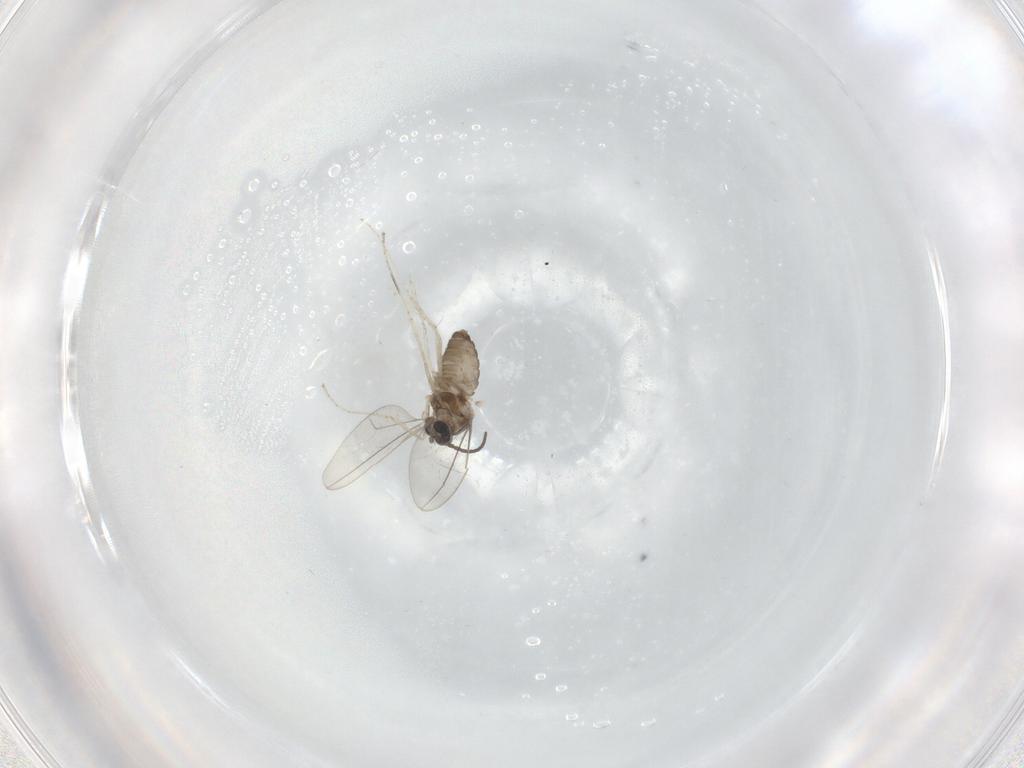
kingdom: Animalia
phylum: Arthropoda
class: Insecta
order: Diptera
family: Cecidomyiidae
